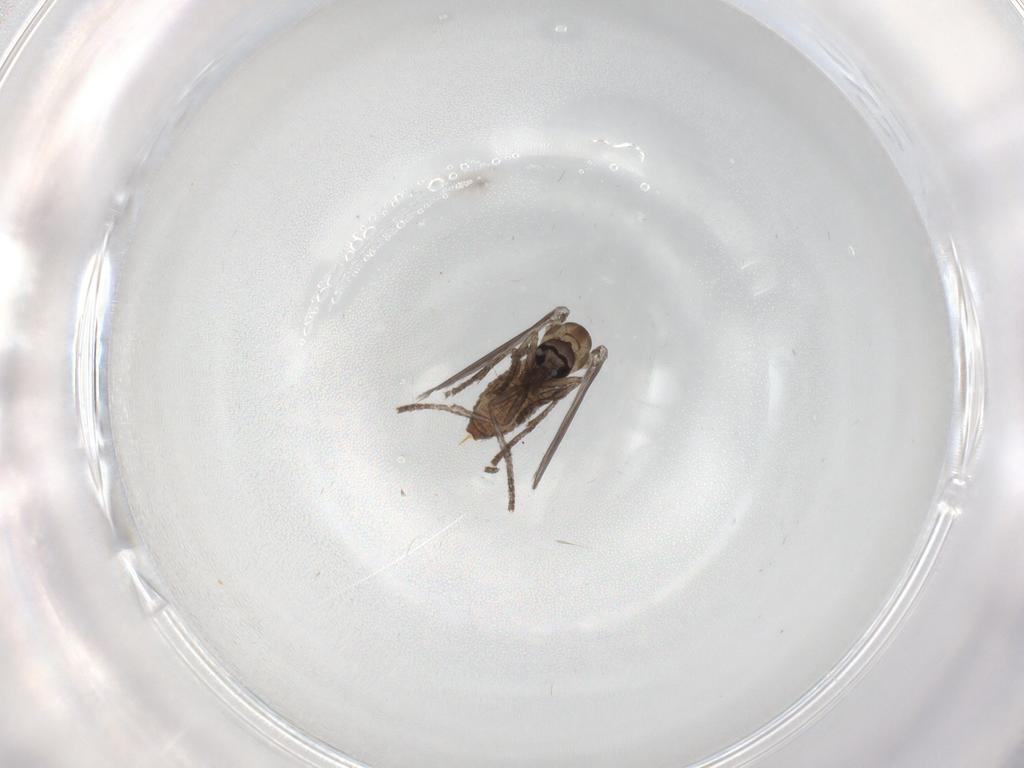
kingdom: Animalia
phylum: Arthropoda
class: Insecta
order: Diptera
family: Psychodidae
